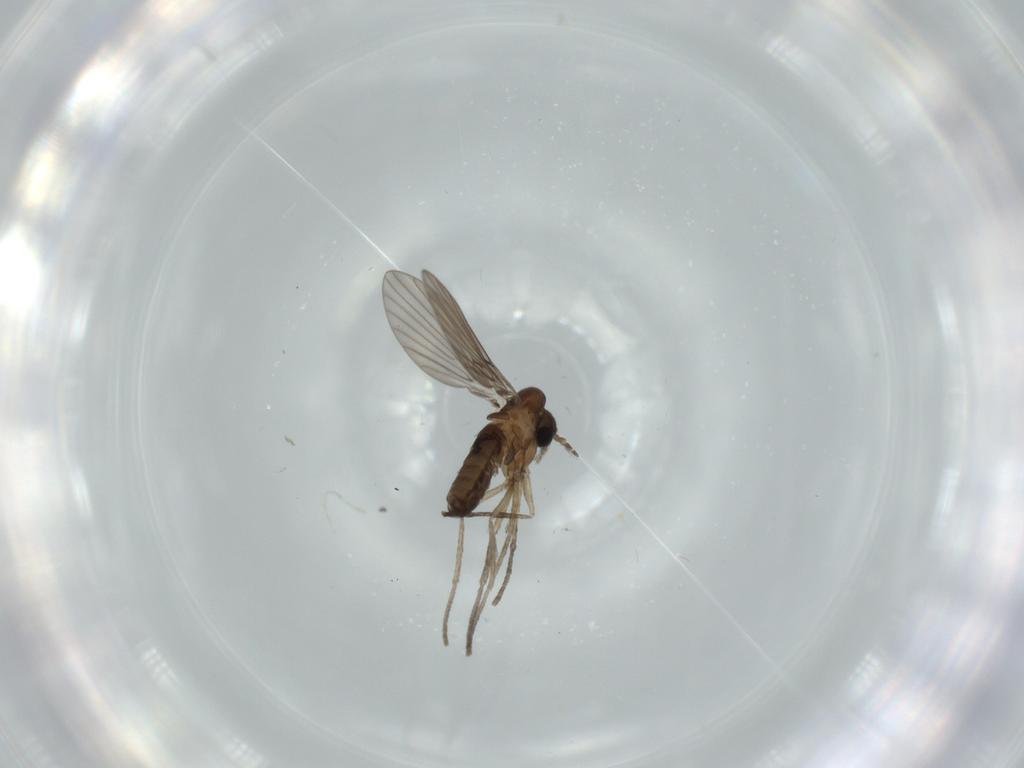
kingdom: Animalia
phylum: Arthropoda
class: Insecta
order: Diptera
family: Psychodidae
